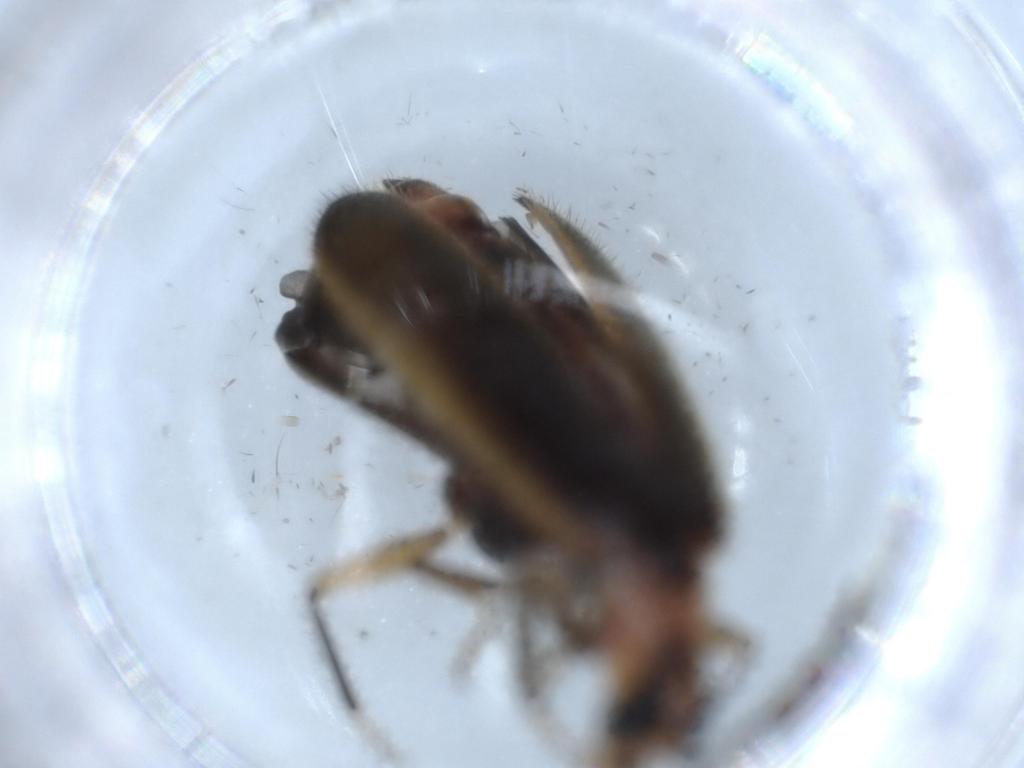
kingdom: Animalia
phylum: Arthropoda
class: Insecta
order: Coleoptera
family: Cleridae
